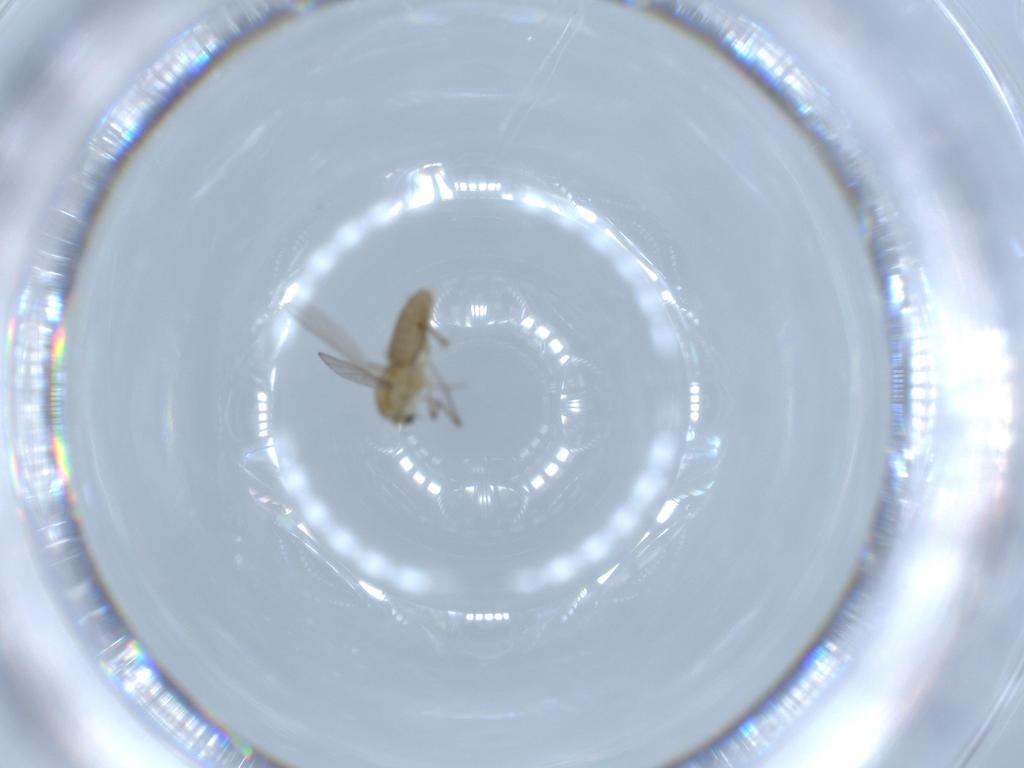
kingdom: Animalia
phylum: Arthropoda
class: Insecta
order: Diptera
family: Chironomidae
